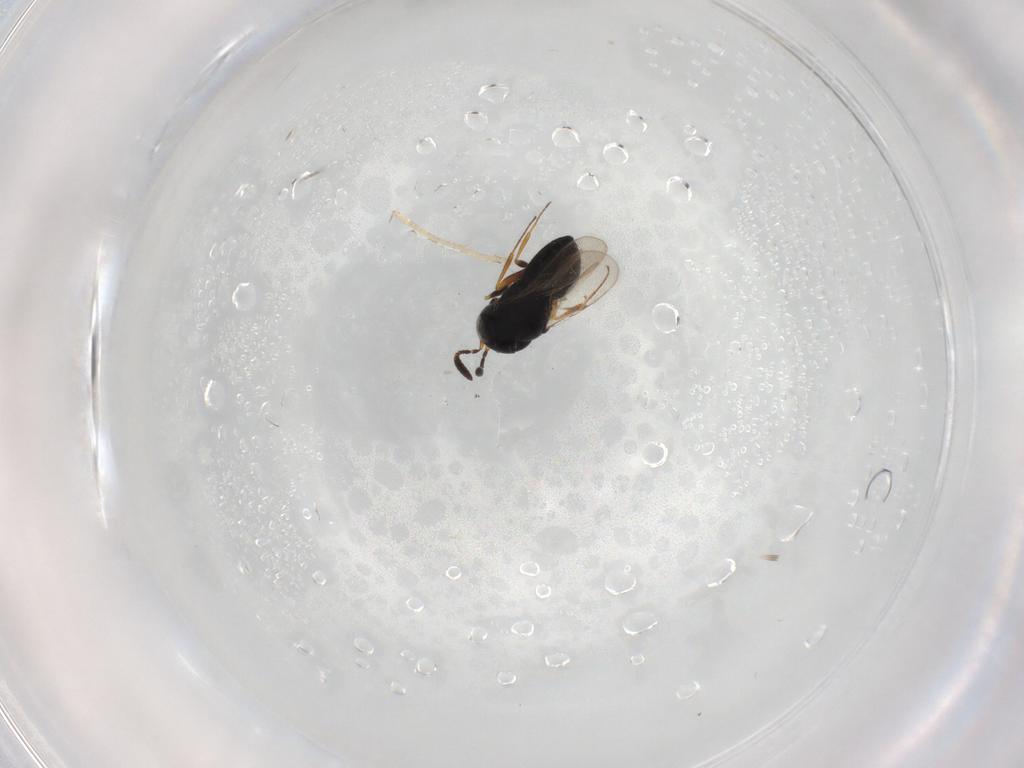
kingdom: Animalia
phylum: Arthropoda
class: Insecta
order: Hymenoptera
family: Scelionidae
